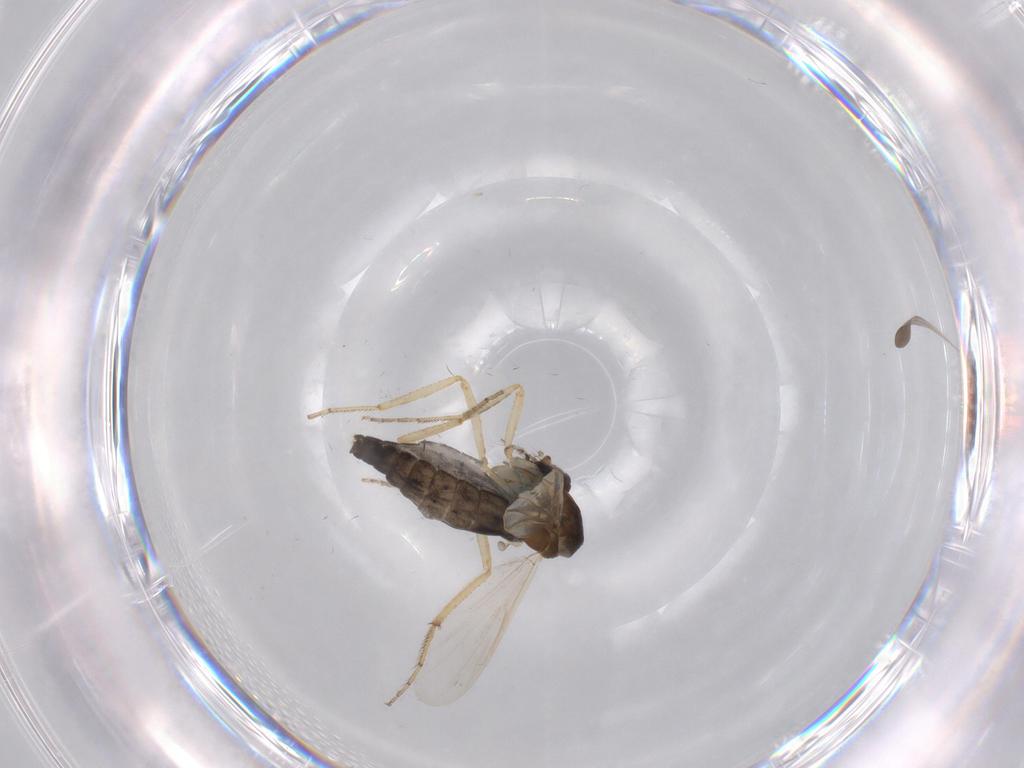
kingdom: Animalia
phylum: Arthropoda
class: Insecta
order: Diptera
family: Ceratopogonidae
